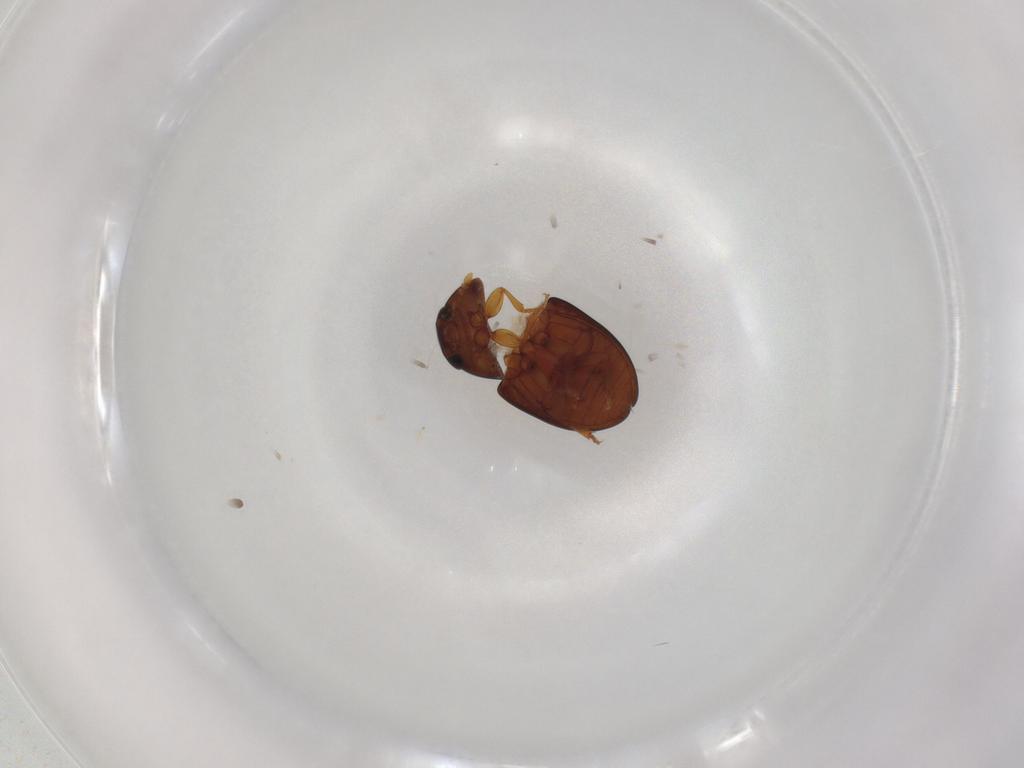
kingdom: Animalia
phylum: Arthropoda
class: Insecta
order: Coleoptera
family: Phalacridae
